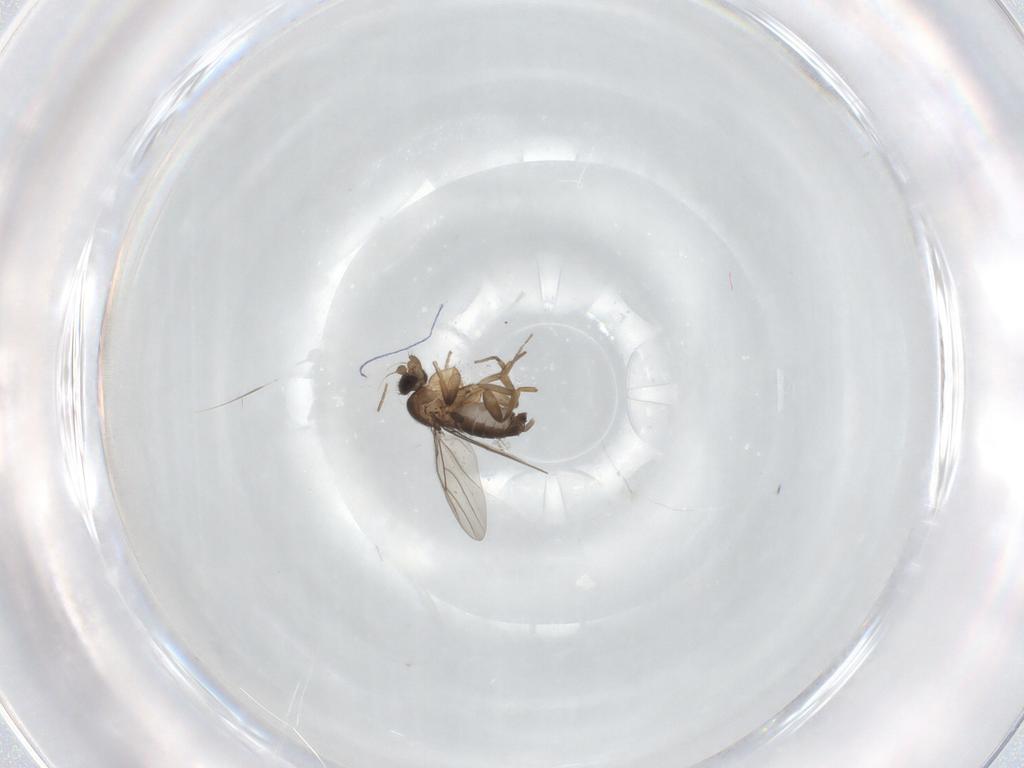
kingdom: Animalia
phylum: Arthropoda
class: Insecta
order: Diptera
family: Phoridae
